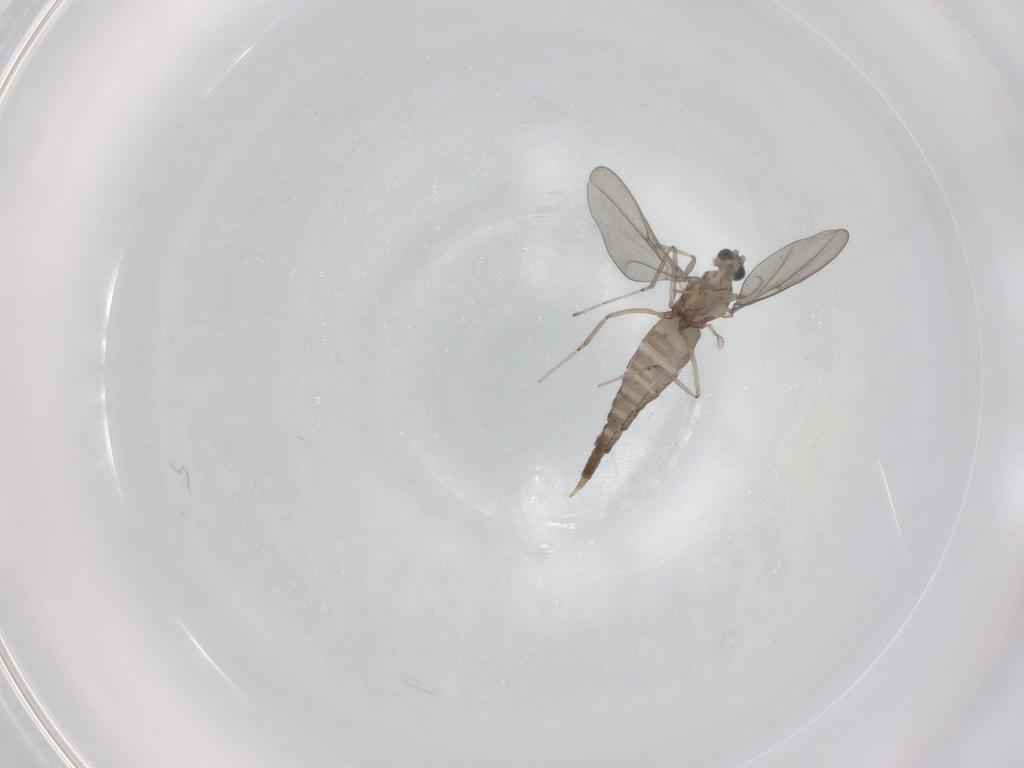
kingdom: Animalia
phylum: Arthropoda
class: Insecta
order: Diptera
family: Cecidomyiidae
